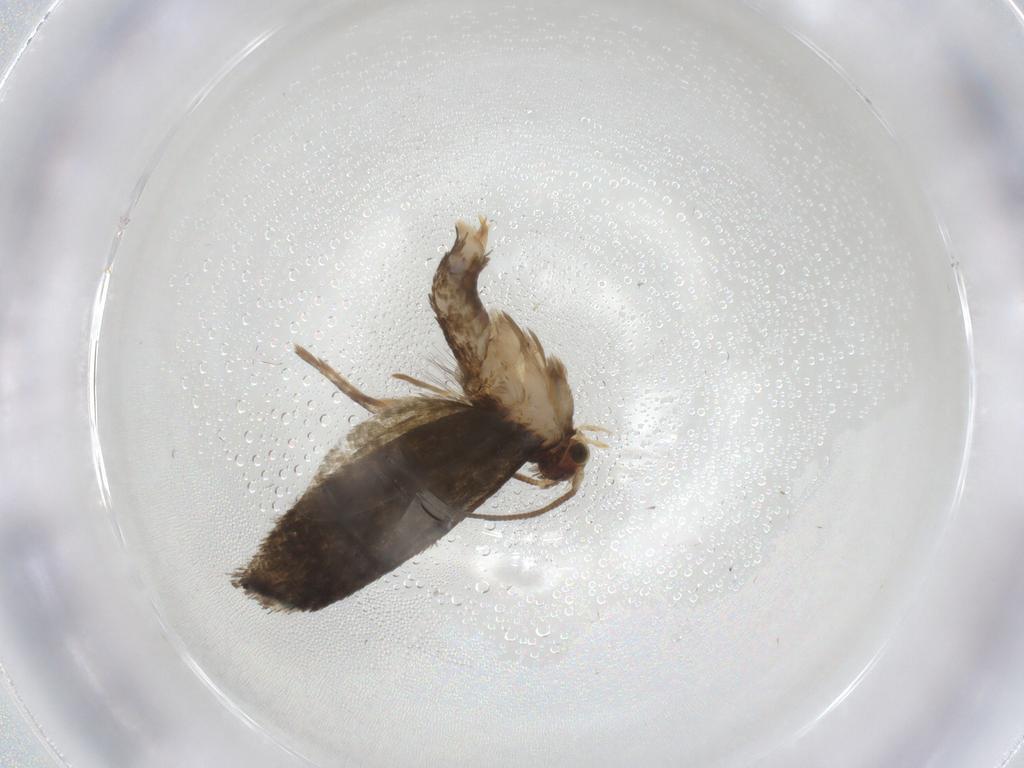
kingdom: Animalia
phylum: Arthropoda
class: Insecta
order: Lepidoptera
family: Tineidae
